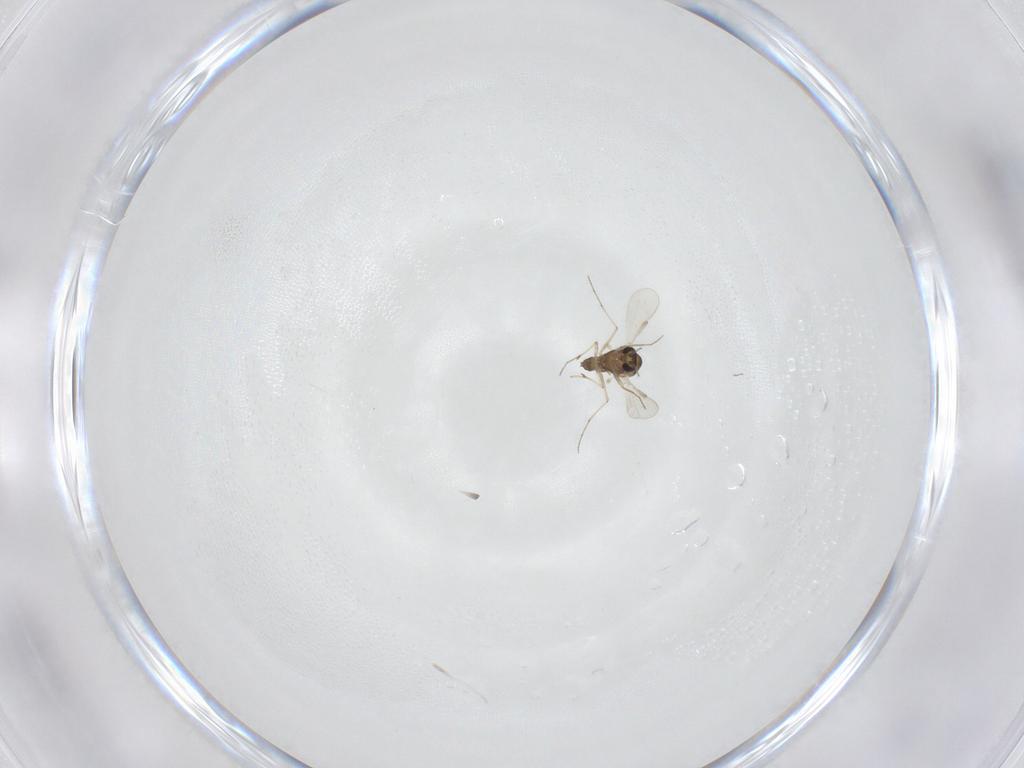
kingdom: Animalia
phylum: Arthropoda
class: Insecta
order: Diptera
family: Chironomidae
